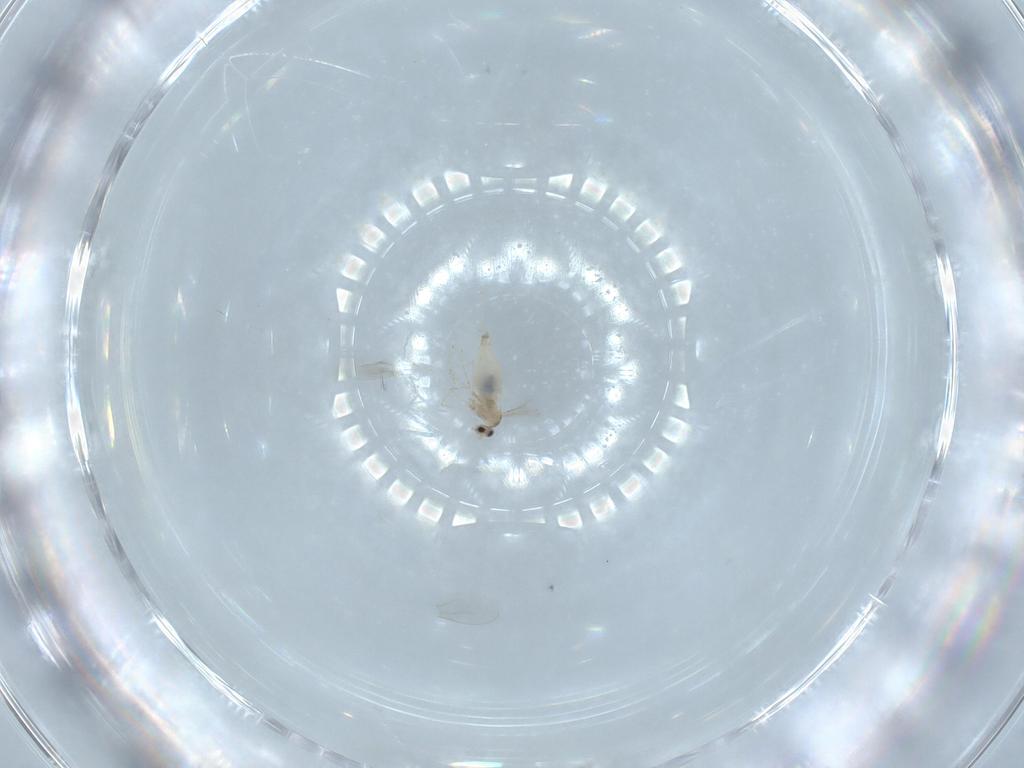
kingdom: Animalia
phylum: Arthropoda
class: Insecta
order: Diptera
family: Cecidomyiidae
